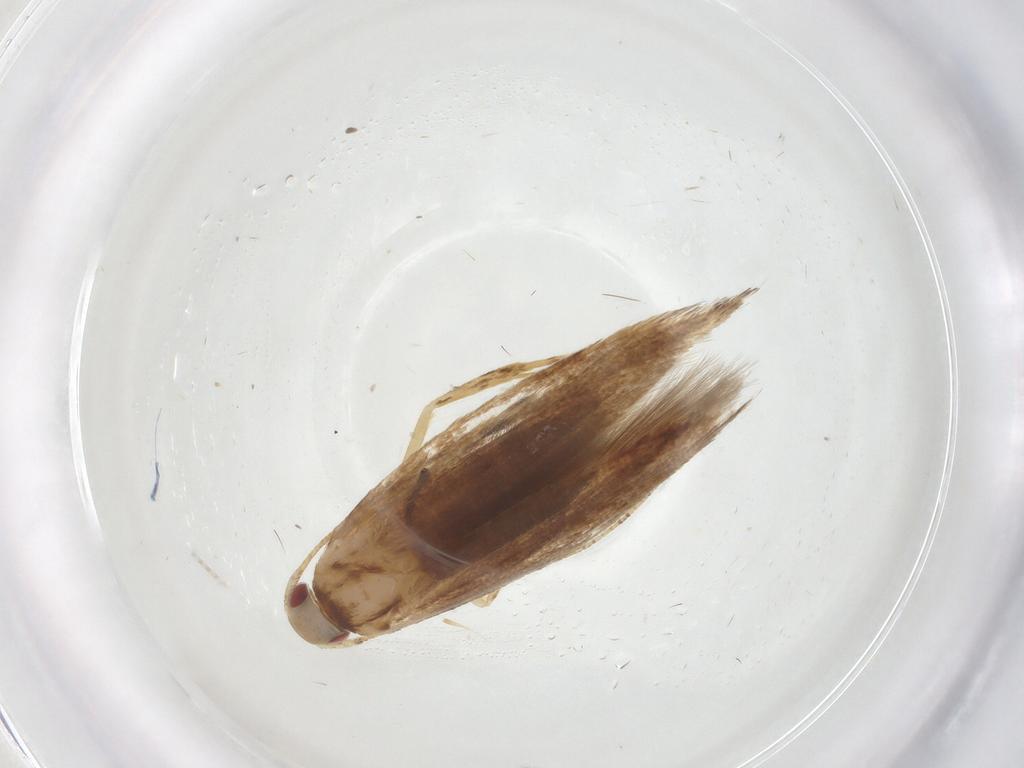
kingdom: Animalia
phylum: Arthropoda
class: Insecta
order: Lepidoptera
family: Cosmopterigidae
